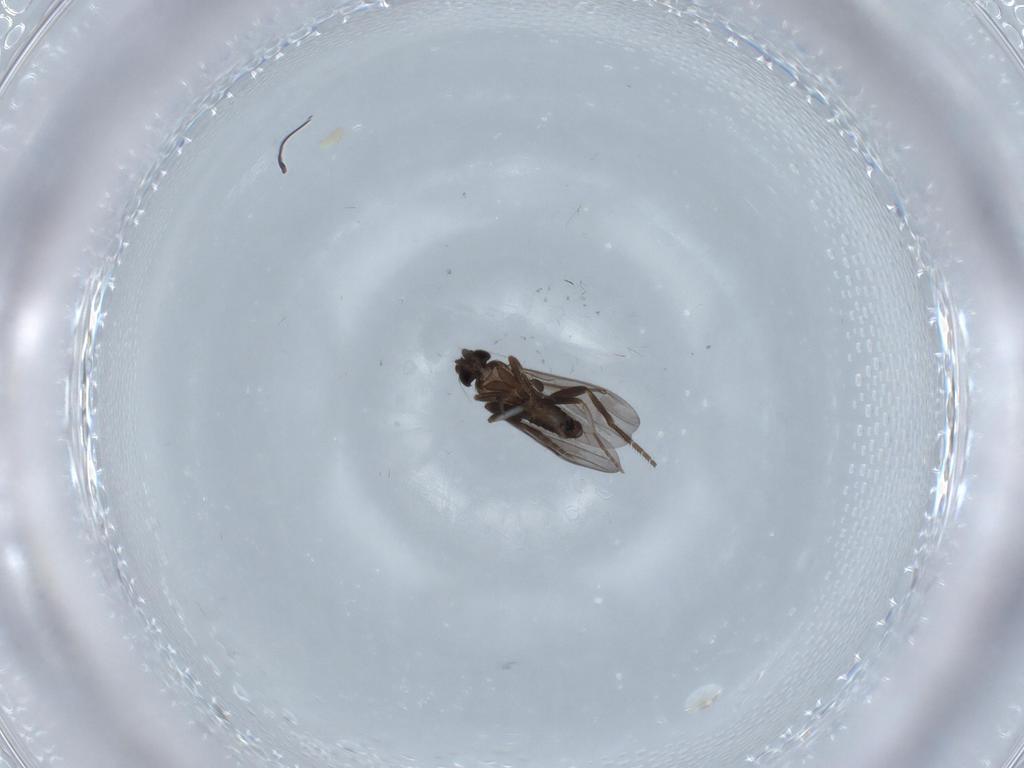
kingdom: Animalia
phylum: Arthropoda
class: Insecta
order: Diptera
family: Phoridae
